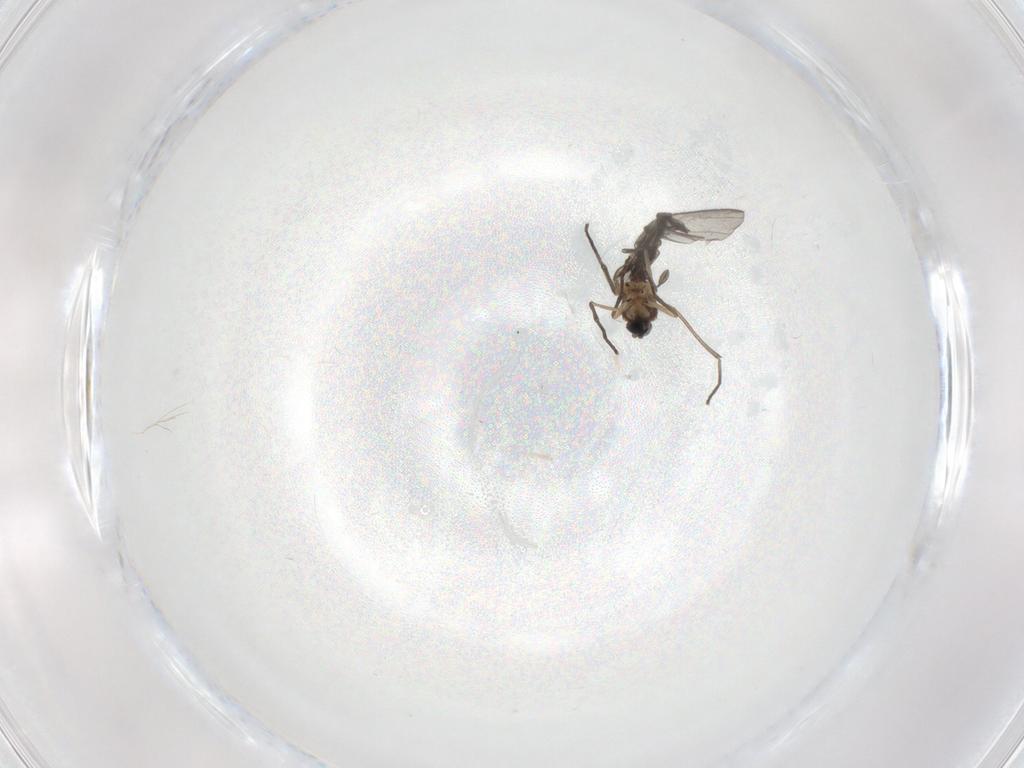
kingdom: Animalia
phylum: Arthropoda
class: Insecta
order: Diptera
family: Sciaridae
